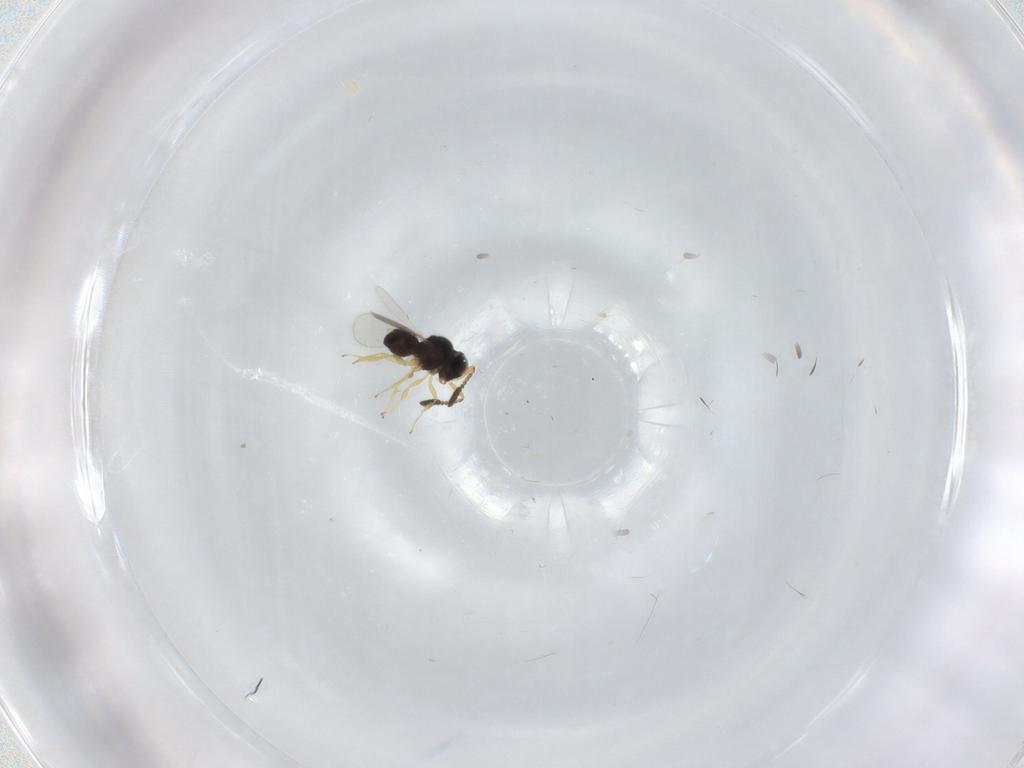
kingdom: Animalia
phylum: Arthropoda
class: Insecta
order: Hymenoptera
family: Scelionidae
